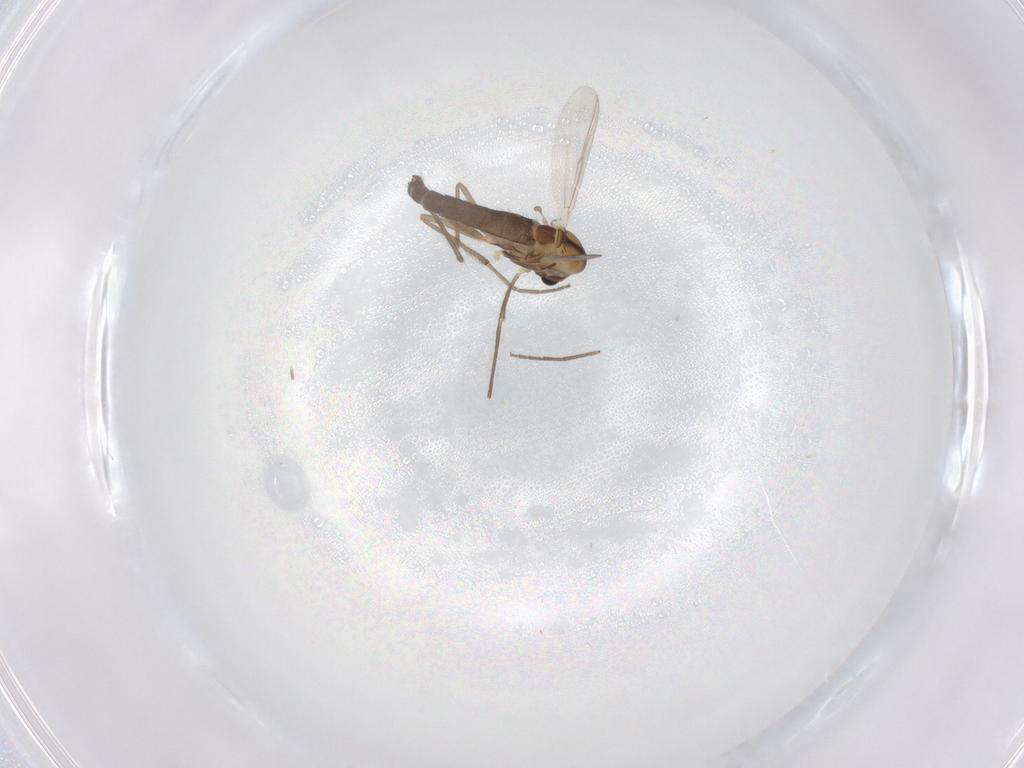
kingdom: Animalia
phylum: Arthropoda
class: Insecta
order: Diptera
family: Chironomidae
